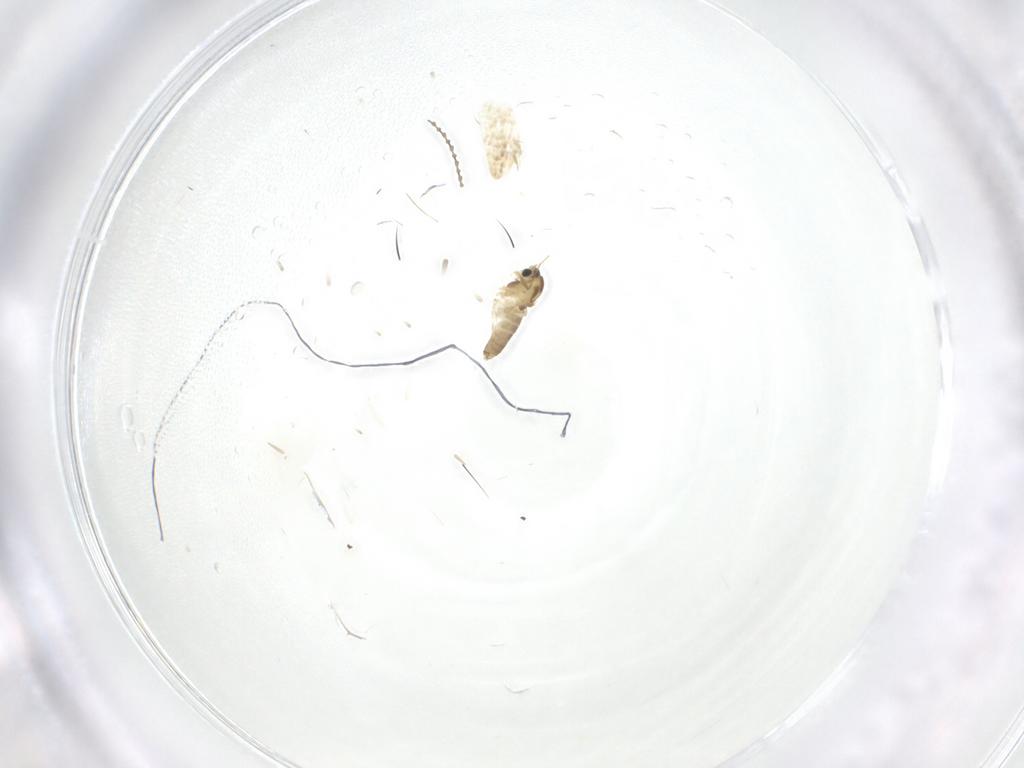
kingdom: Animalia
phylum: Arthropoda
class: Insecta
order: Diptera
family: Chironomidae
